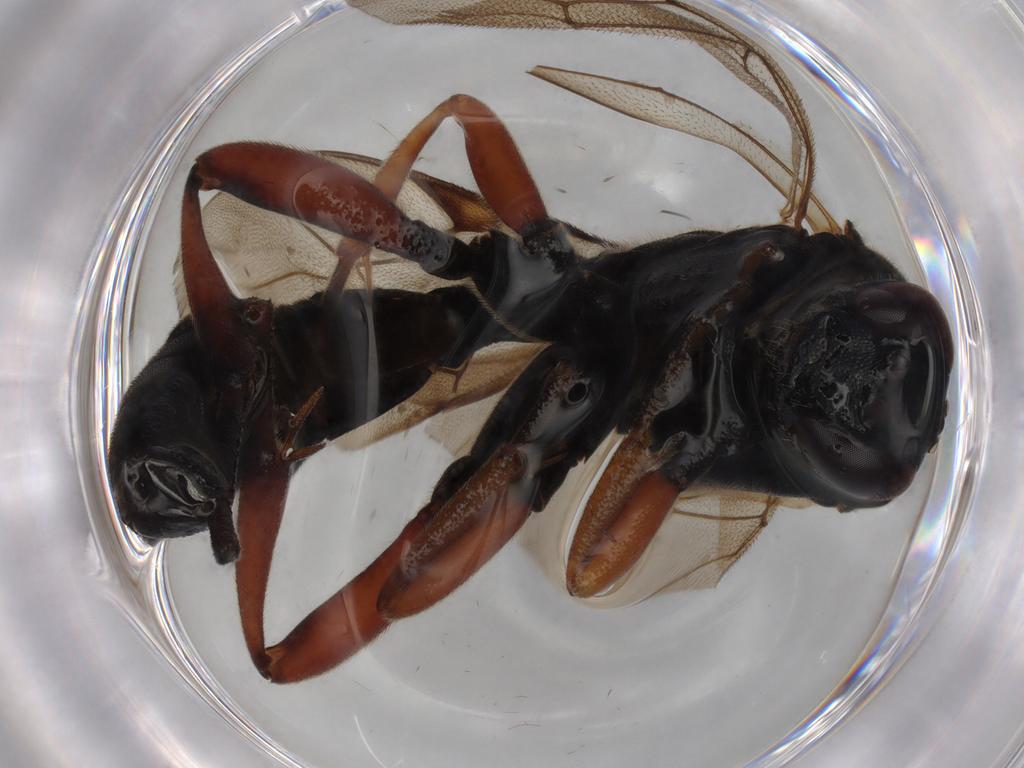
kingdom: Animalia
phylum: Arthropoda
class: Insecta
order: Hymenoptera
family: Ichneumonidae
